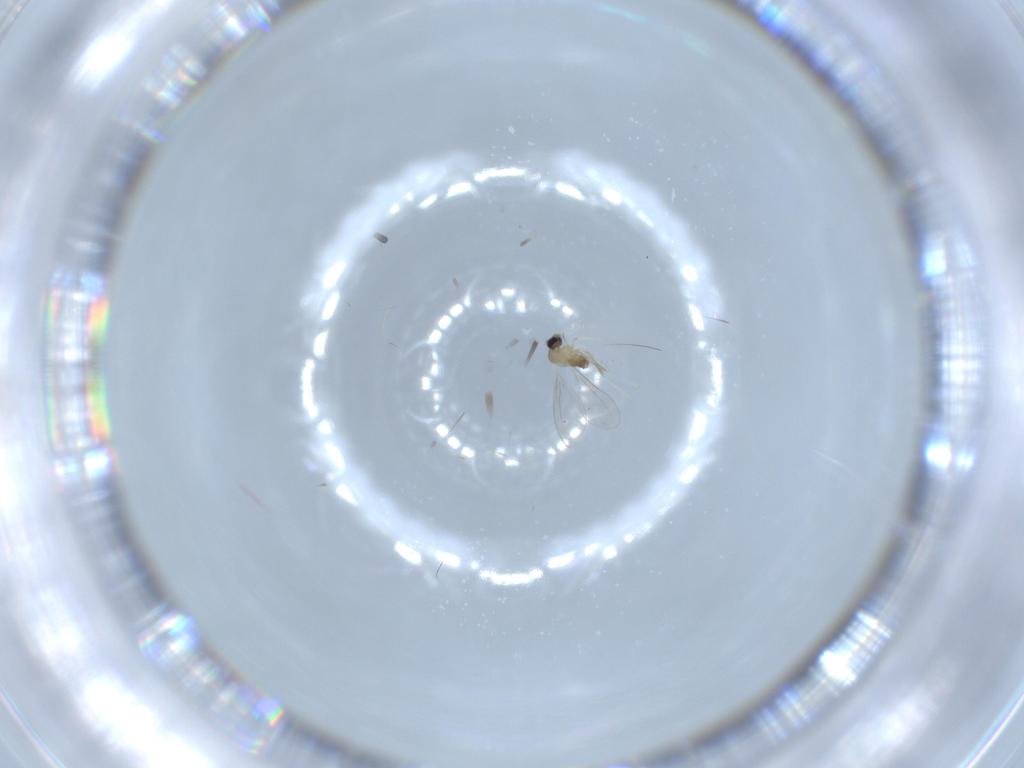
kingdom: Animalia
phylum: Arthropoda
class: Insecta
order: Diptera
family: Cecidomyiidae
